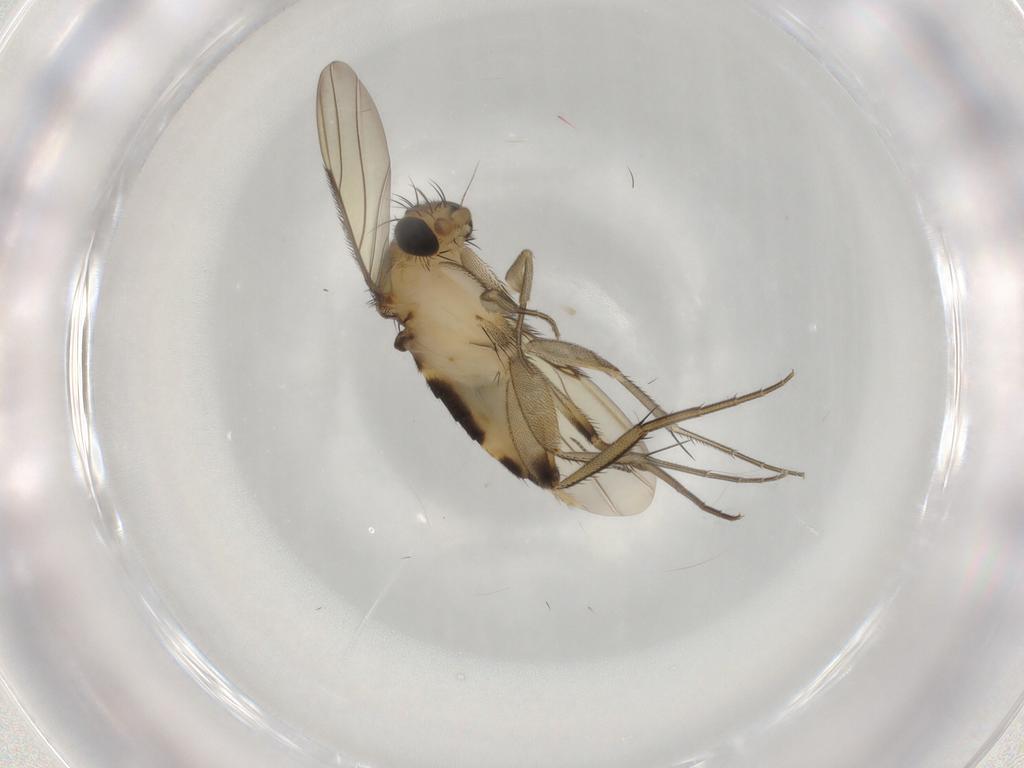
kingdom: Animalia
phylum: Arthropoda
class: Insecta
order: Diptera
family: Phoridae
